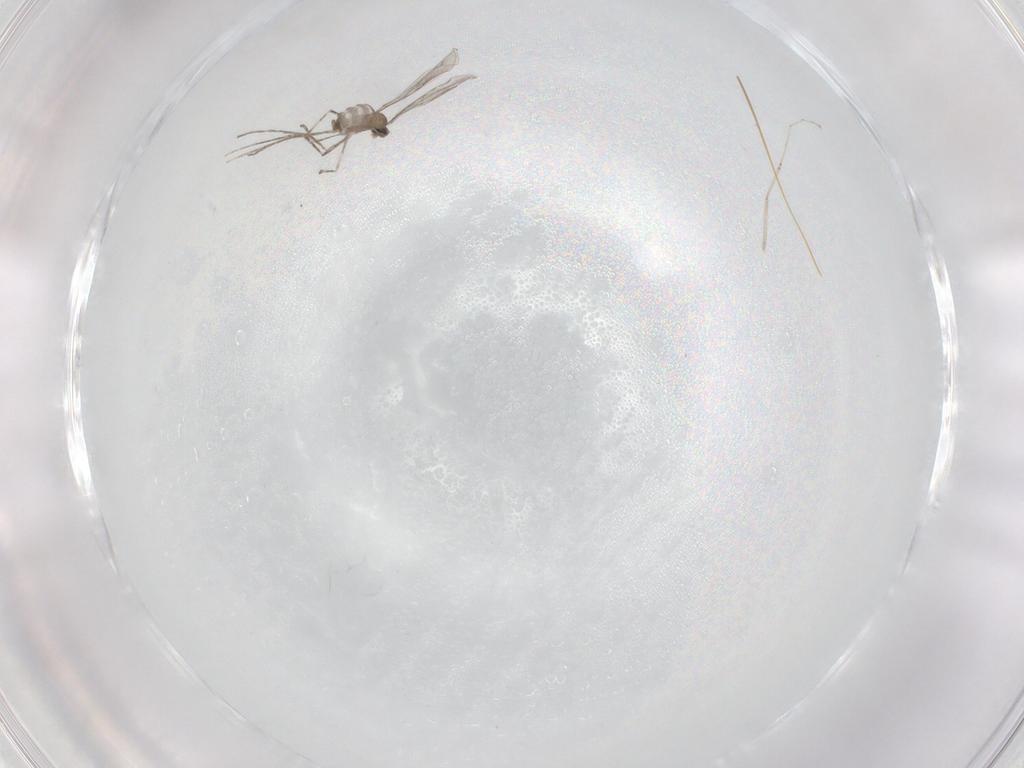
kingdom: Animalia
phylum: Arthropoda
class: Insecta
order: Diptera
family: Cecidomyiidae
